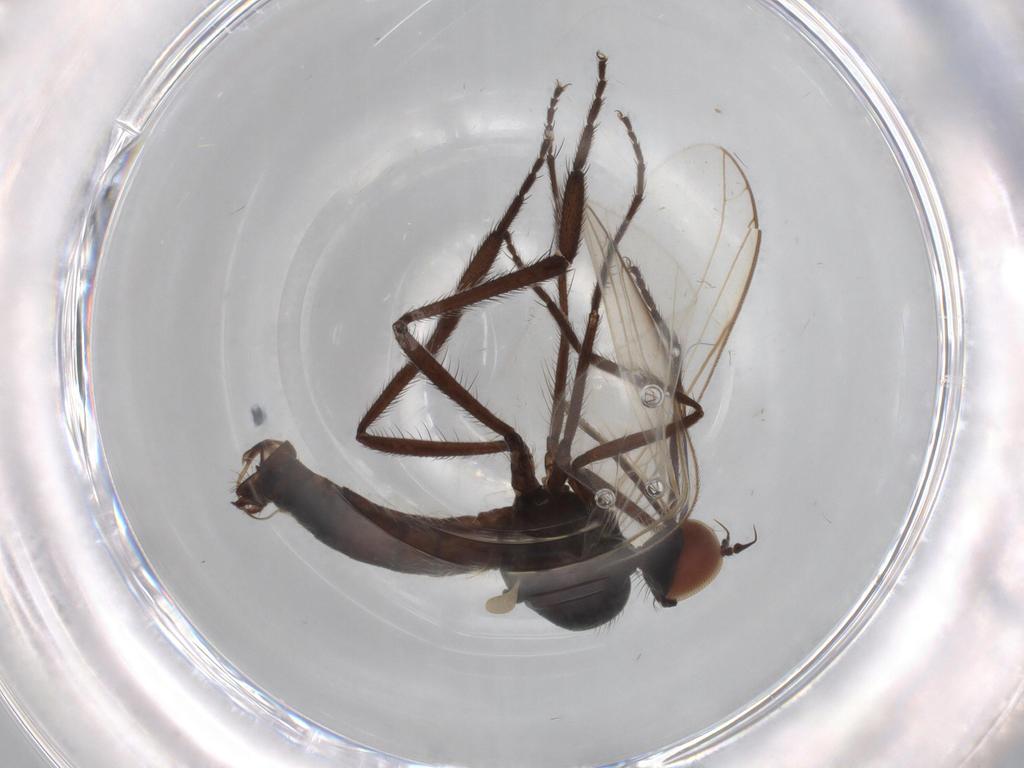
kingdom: Animalia
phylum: Arthropoda
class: Insecta
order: Diptera
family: Empididae
